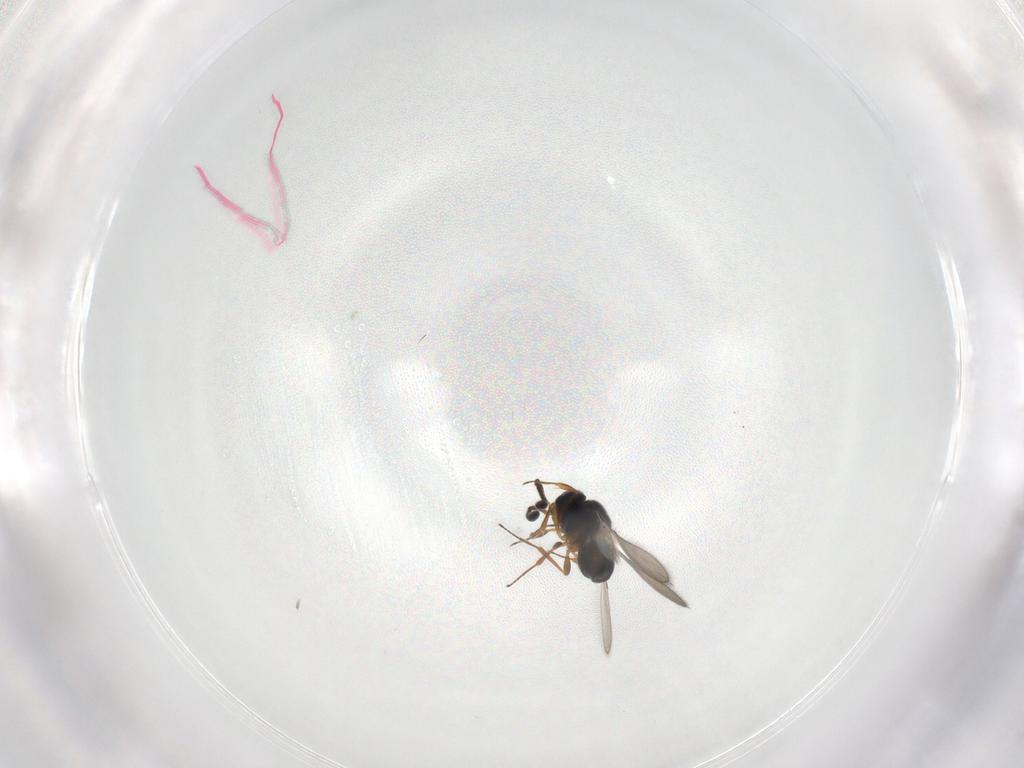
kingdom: Animalia
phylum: Arthropoda
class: Insecta
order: Hymenoptera
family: Scelionidae
